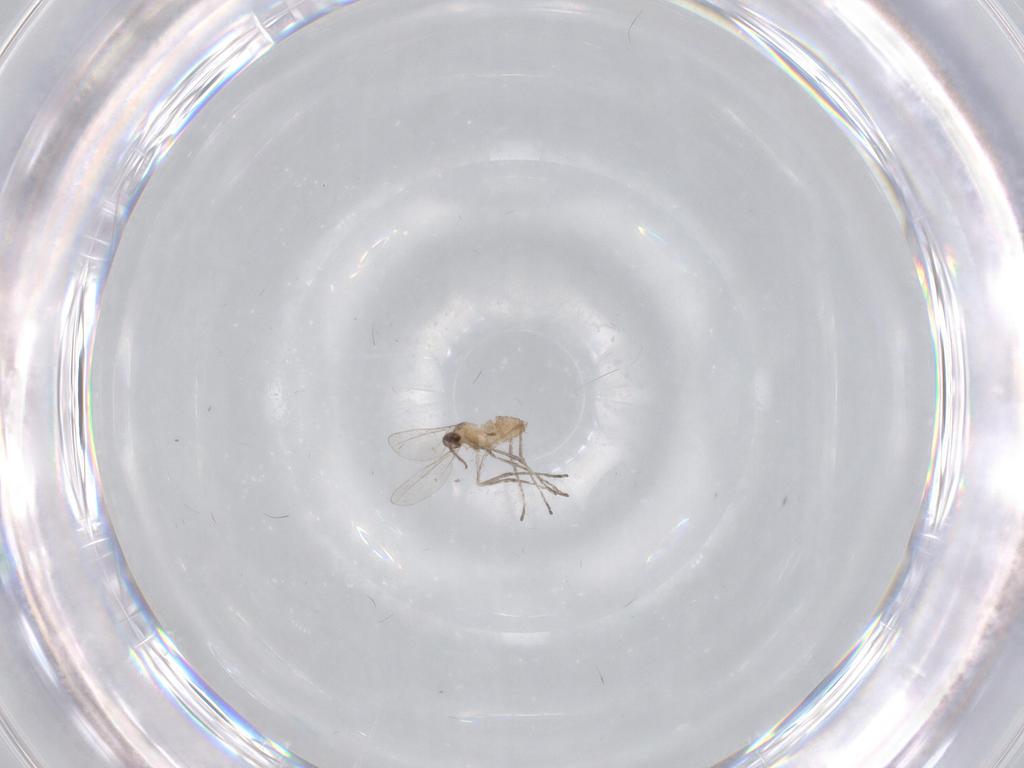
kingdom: Animalia
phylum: Arthropoda
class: Insecta
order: Diptera
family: Cecidomyiidae
